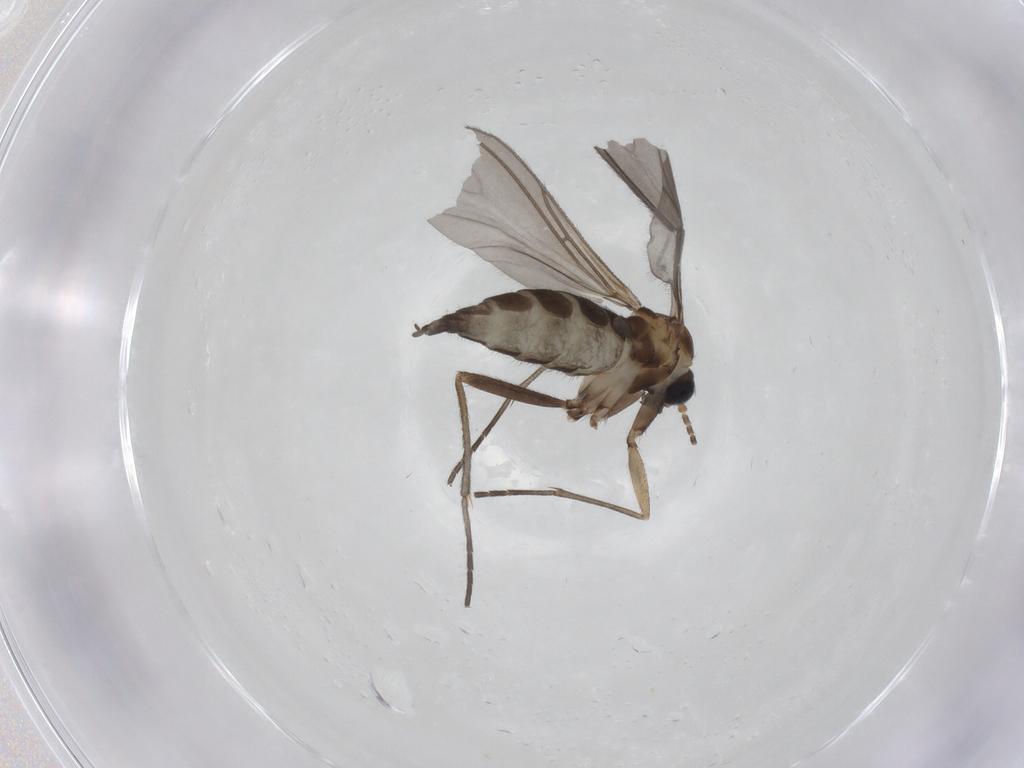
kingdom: Animalia
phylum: Arthropoda
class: Insecta
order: Diptera
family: Sciaridae
